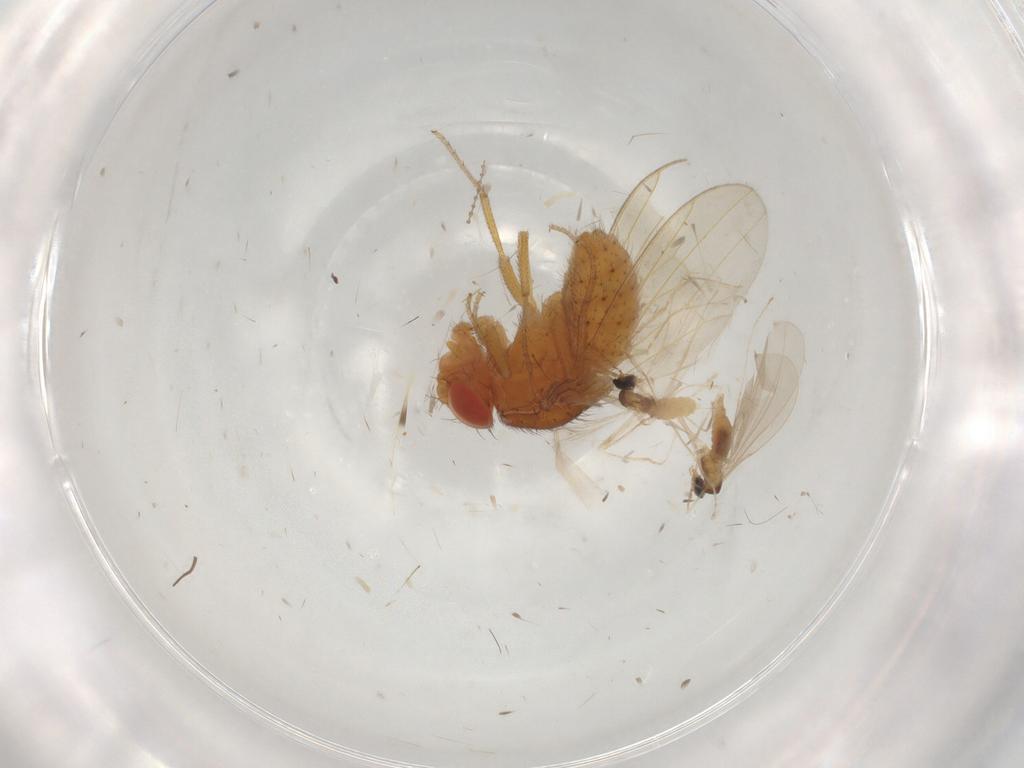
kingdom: Animalia
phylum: Arthropoda
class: Insecta
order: Diptera
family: Drosophilidae
